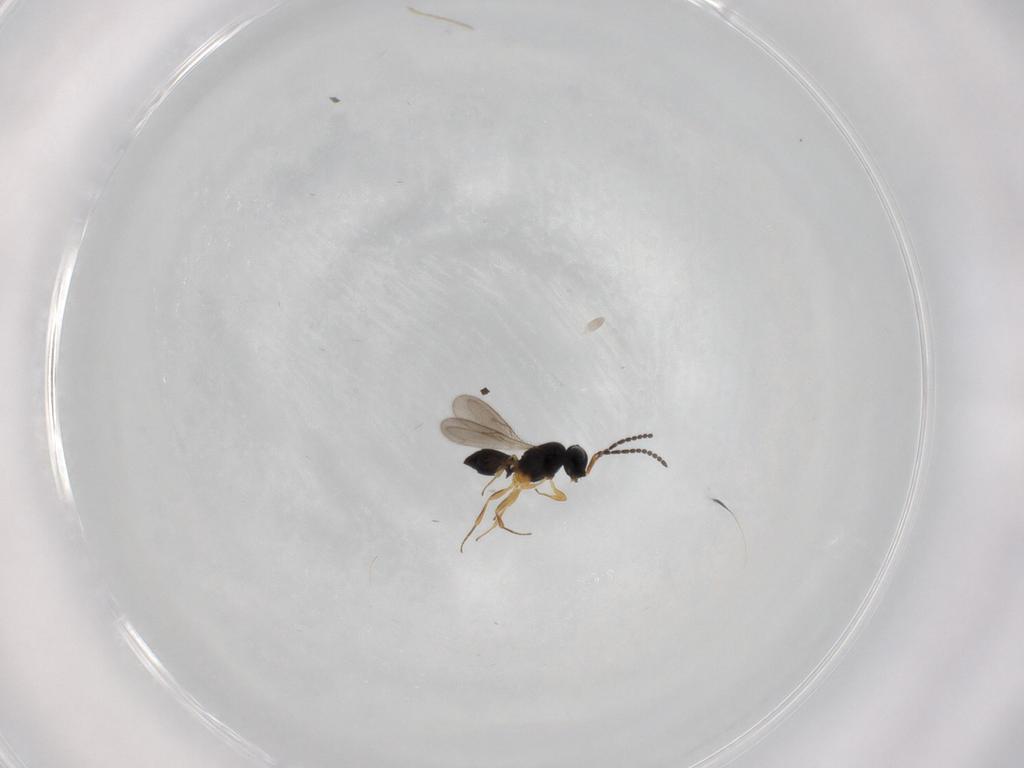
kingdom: Animalia
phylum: Arthropoda
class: Insecta
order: Hymenoptera
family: Scelionidae
